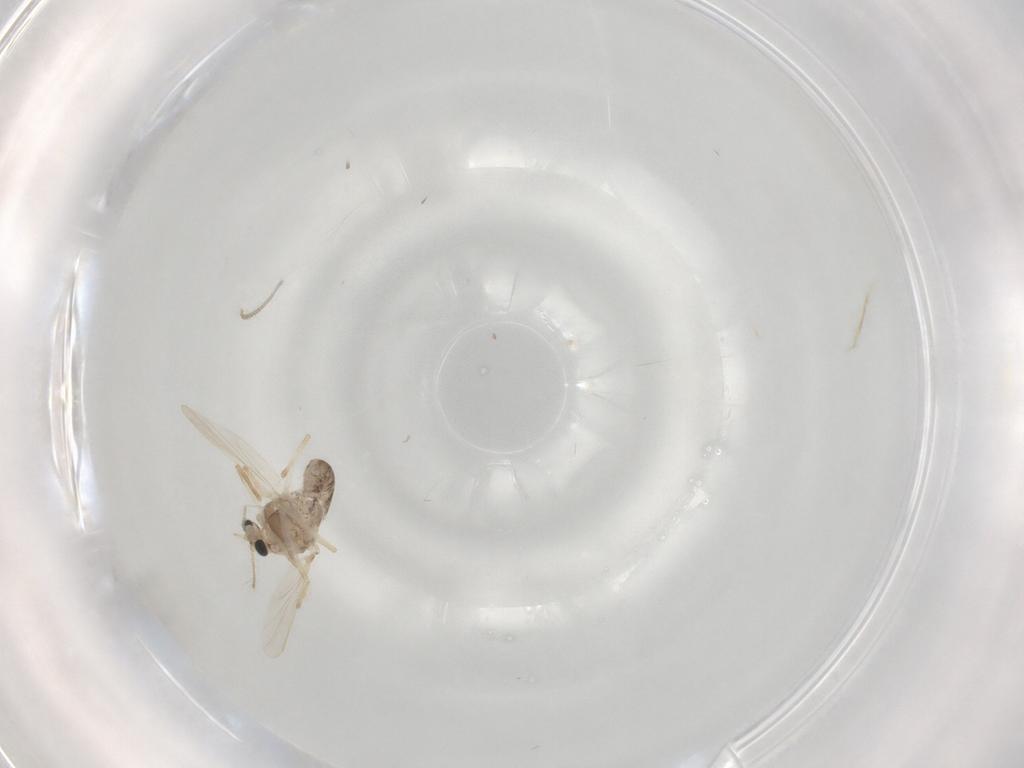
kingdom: Animalia
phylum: Arthropoda
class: Insecta
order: Diptera
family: Chironomidae
